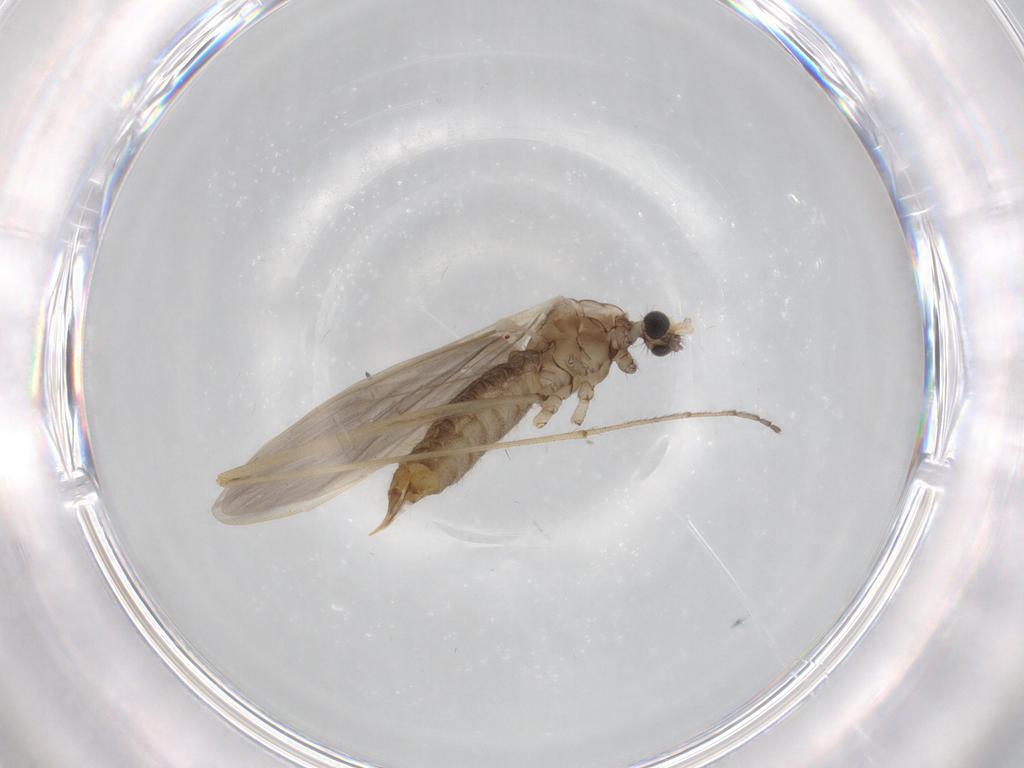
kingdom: Animalia
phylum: Arthropoda
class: Insecta
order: Diptera
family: Limoniidae
